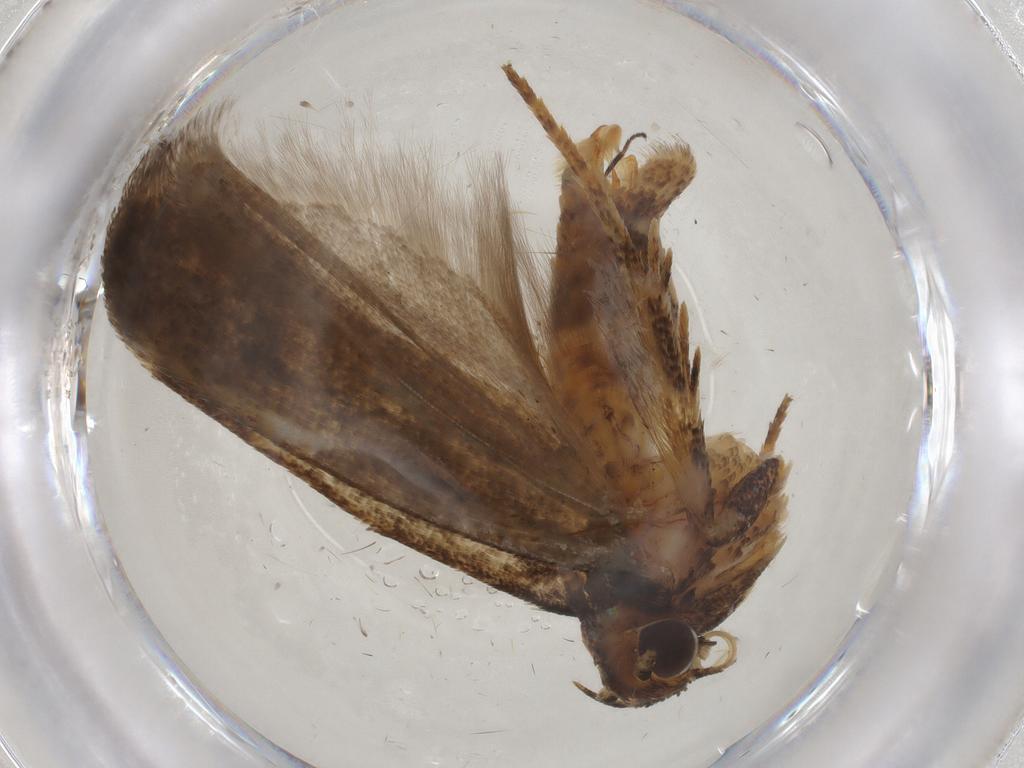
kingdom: Animalia
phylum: Arthropoda
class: Insecta
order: Lepidoptera
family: Gelechiidae
